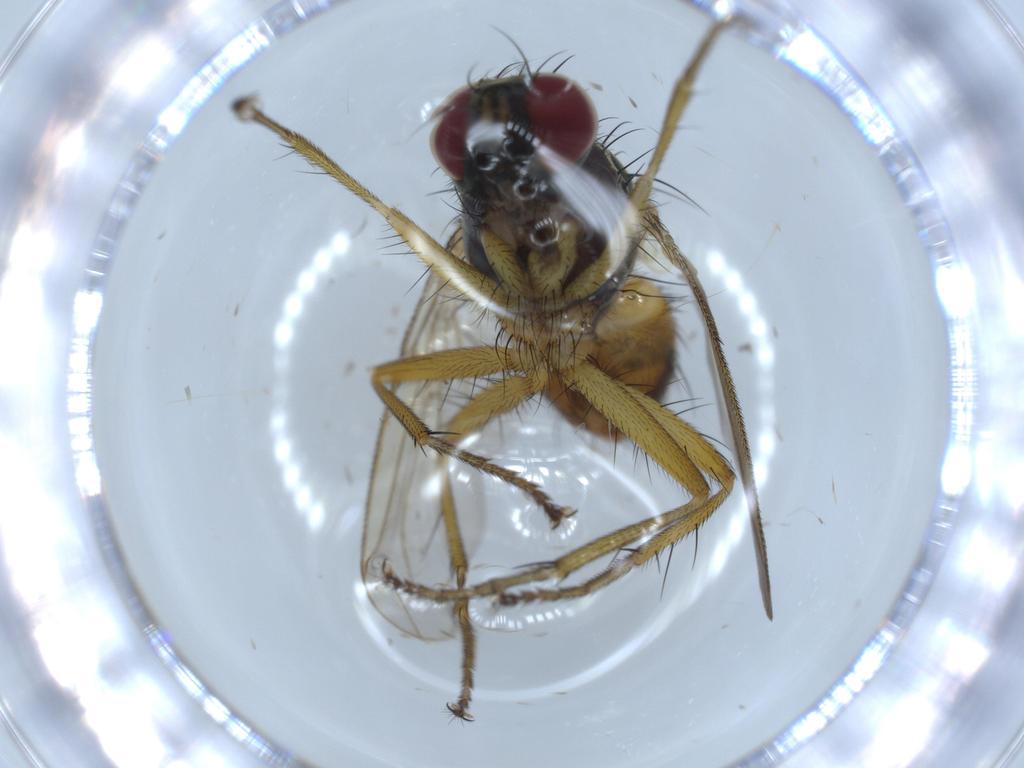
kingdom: Animalia
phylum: Arthropoda
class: Insecta
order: Diptera
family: Muscidae
